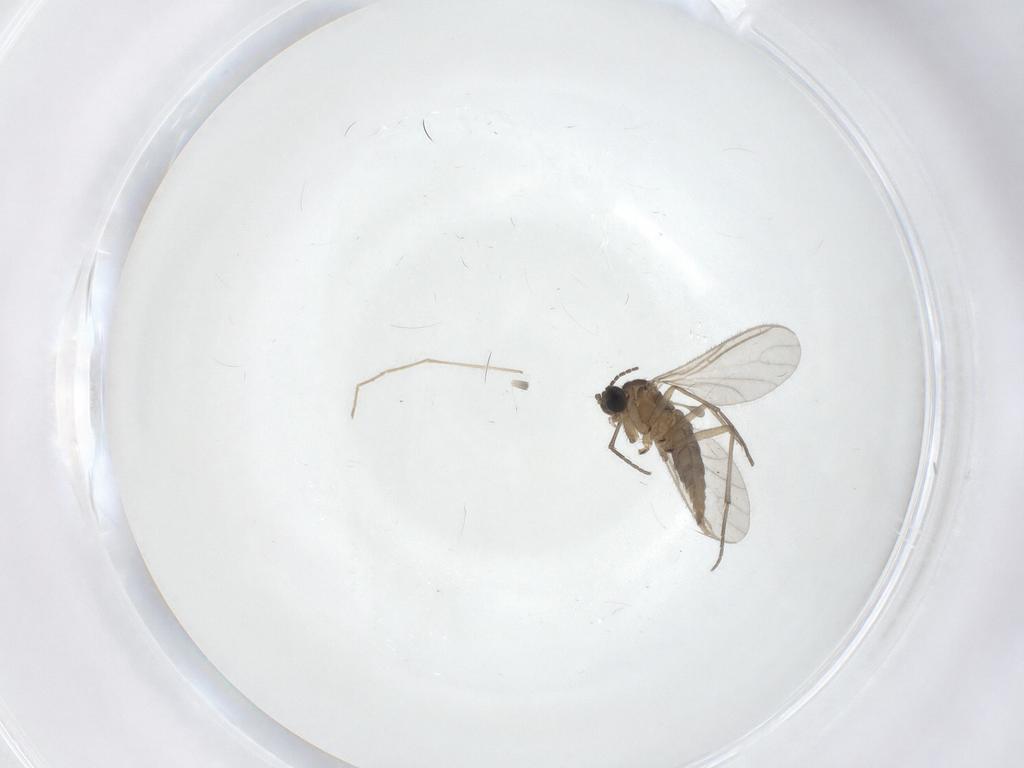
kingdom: Animalia
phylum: Arthropoda
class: Insecta
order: Diptera
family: Sciaridae
